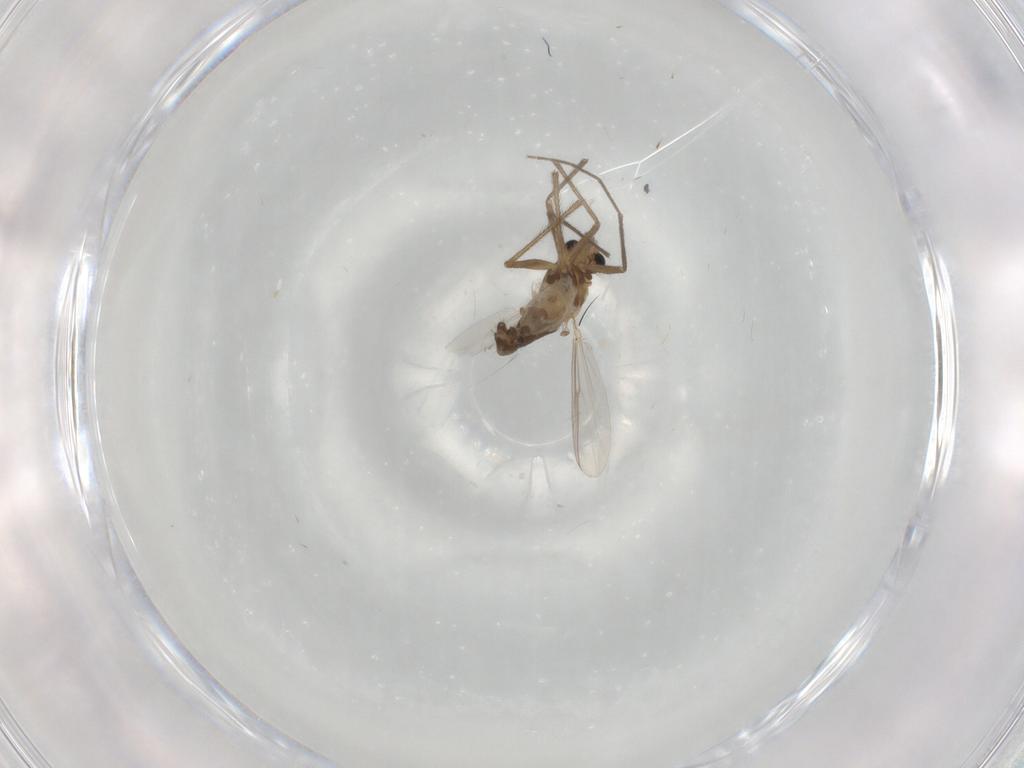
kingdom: Animalia
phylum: Arthropoda
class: Insecta
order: Diptera
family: Chironomidae
